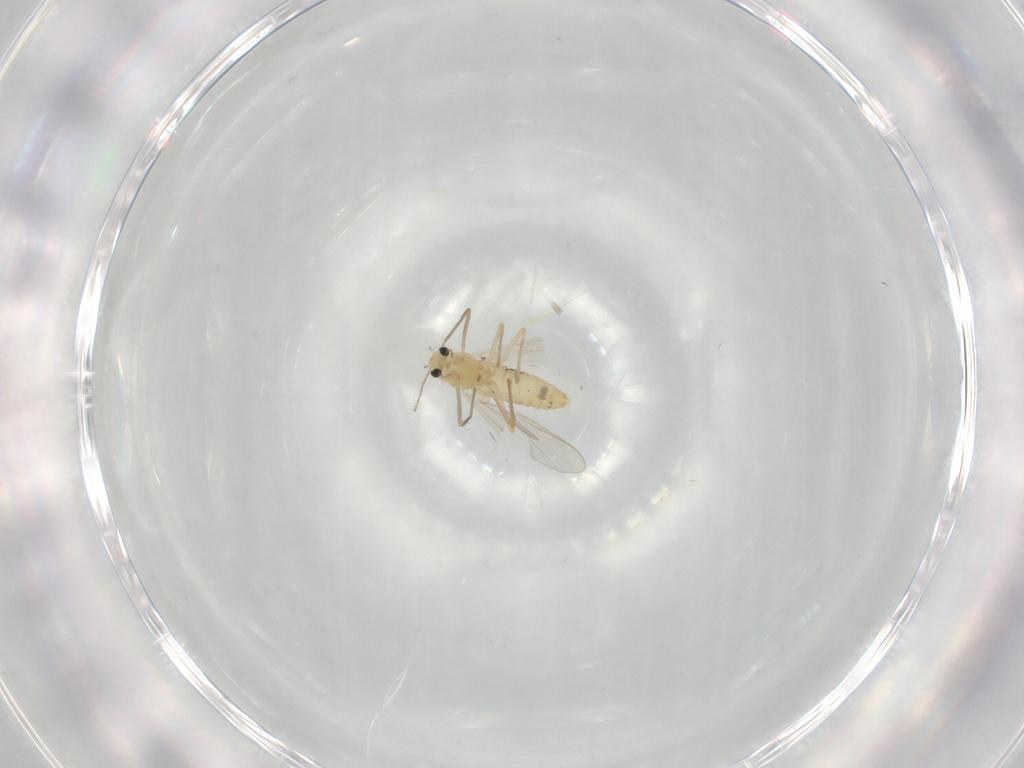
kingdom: Animalia
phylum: Arthropoda
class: Insecta
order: Diptera
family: Chironomidae
